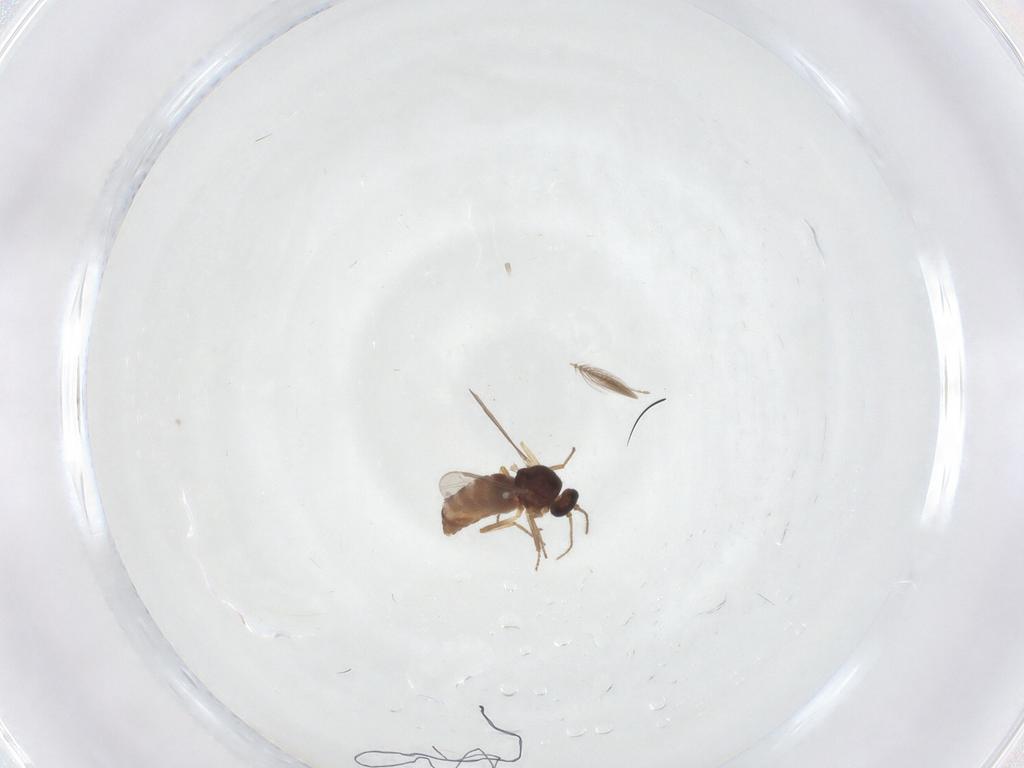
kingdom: Animalia
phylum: Arthropoda
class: Insecta
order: Diptera
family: Ceratopogonidae
